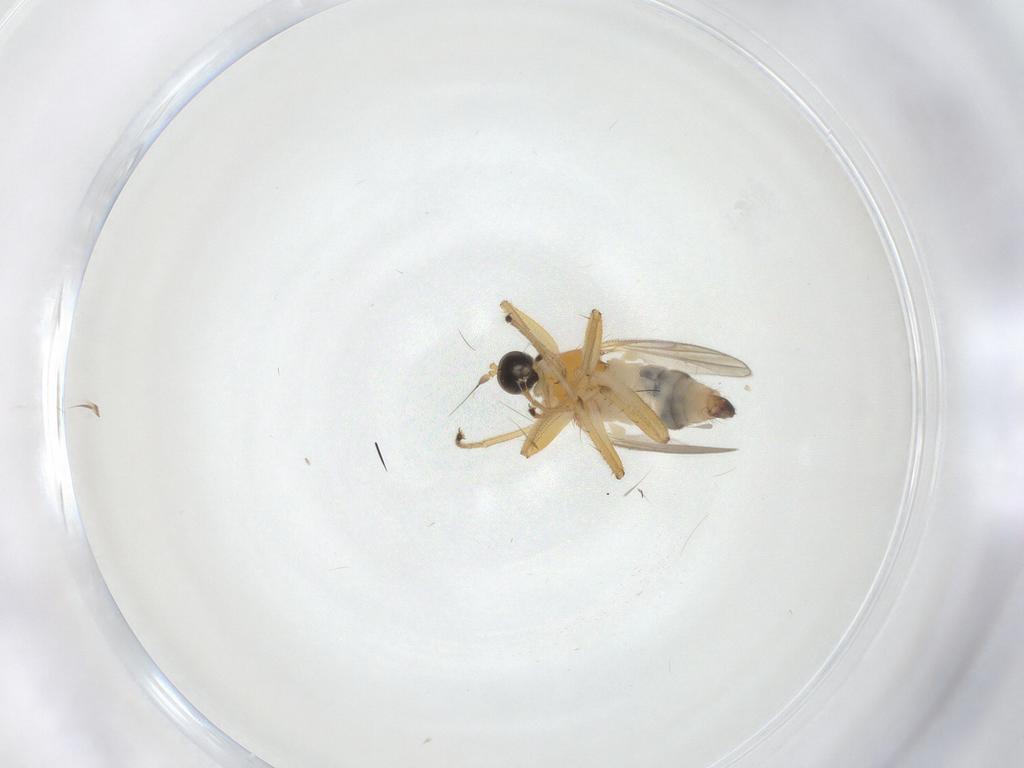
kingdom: Animalia
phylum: Arthropoda
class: Insecta
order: Diptera
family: Hybotidae
